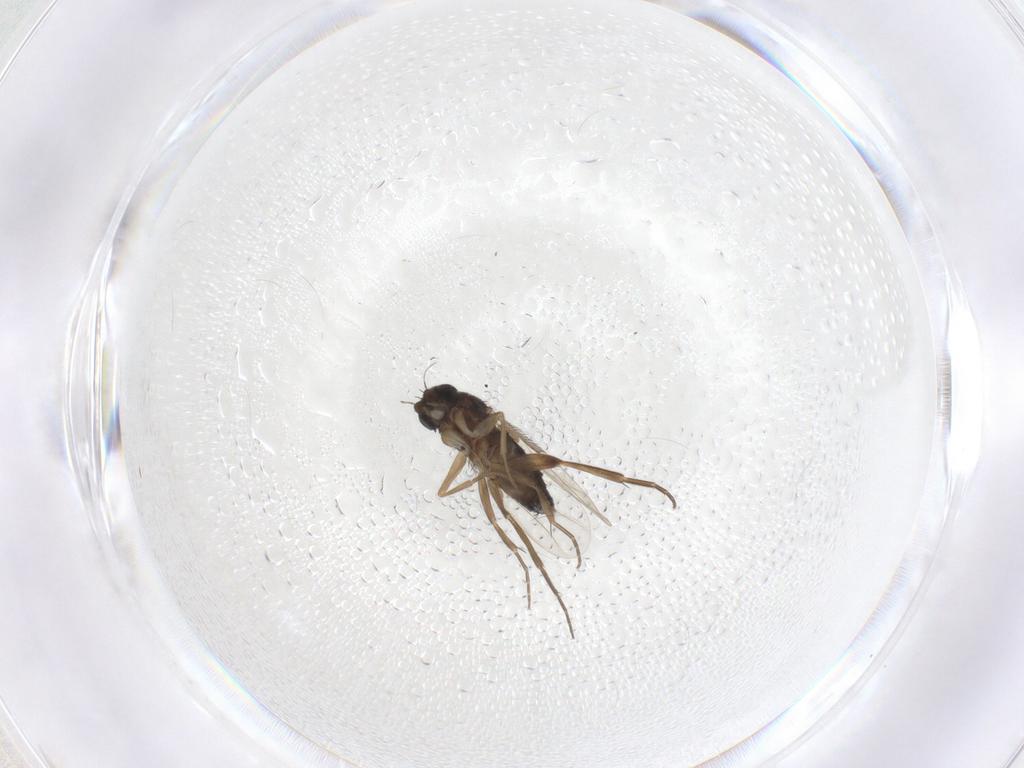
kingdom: Animalia
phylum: Arthropoda
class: Insecta
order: Diptera
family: Phoridae
